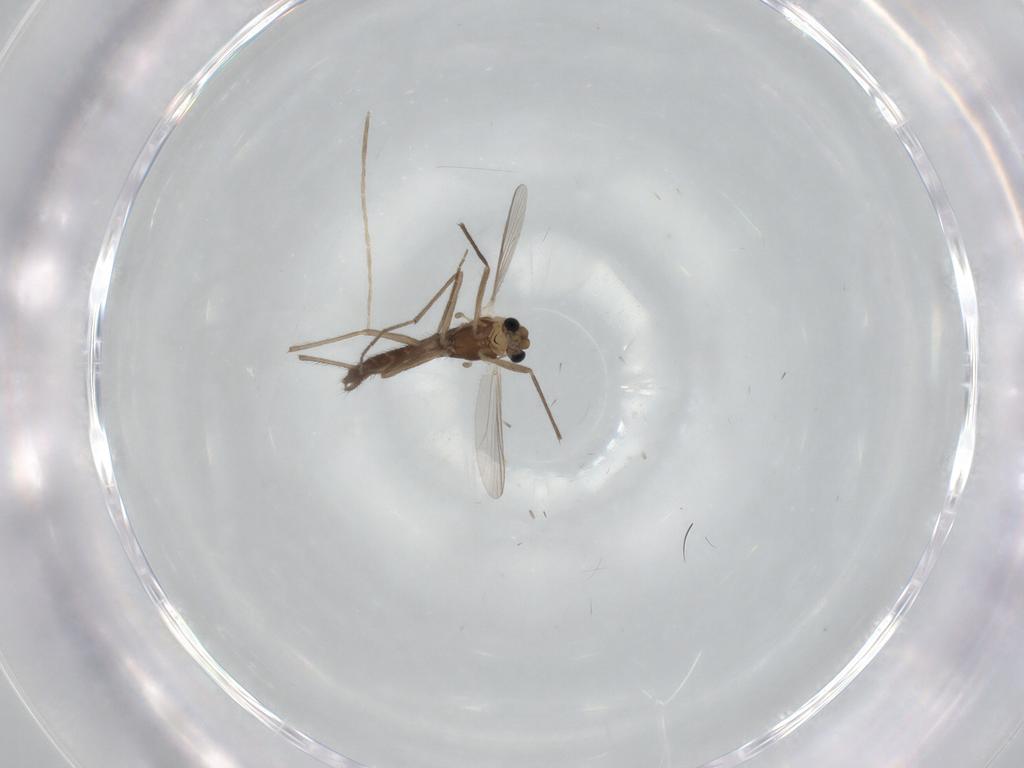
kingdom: Animalia
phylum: Arthropoda
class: Insecta
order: Diptera
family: Chironomidae
